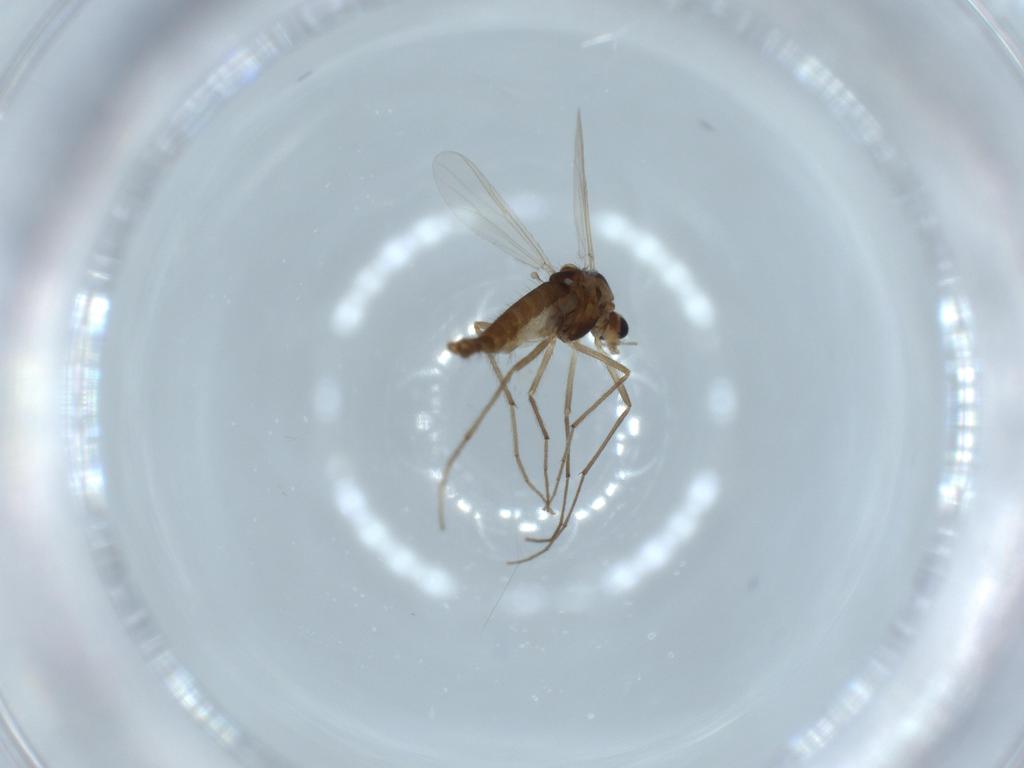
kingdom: Animalia
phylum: Arthropoda
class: Insecta
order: Diptera
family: Chironomidae
